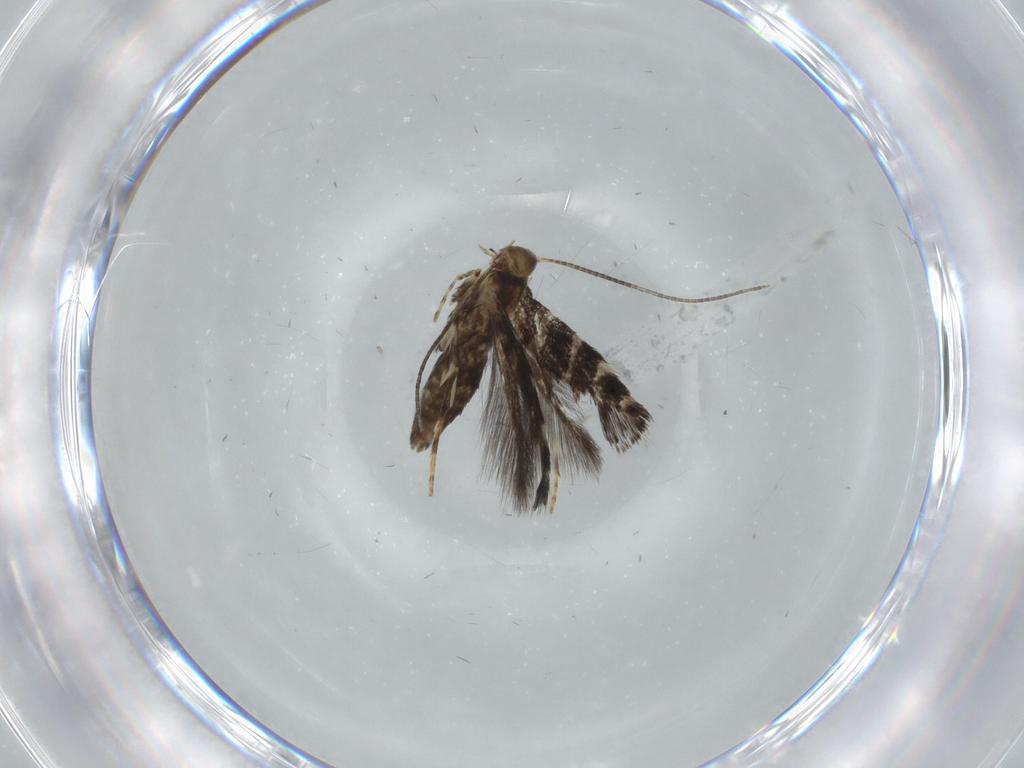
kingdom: Animalia
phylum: Arthropoda
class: Insecta
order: Lepidoptera
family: Gracillariidae
